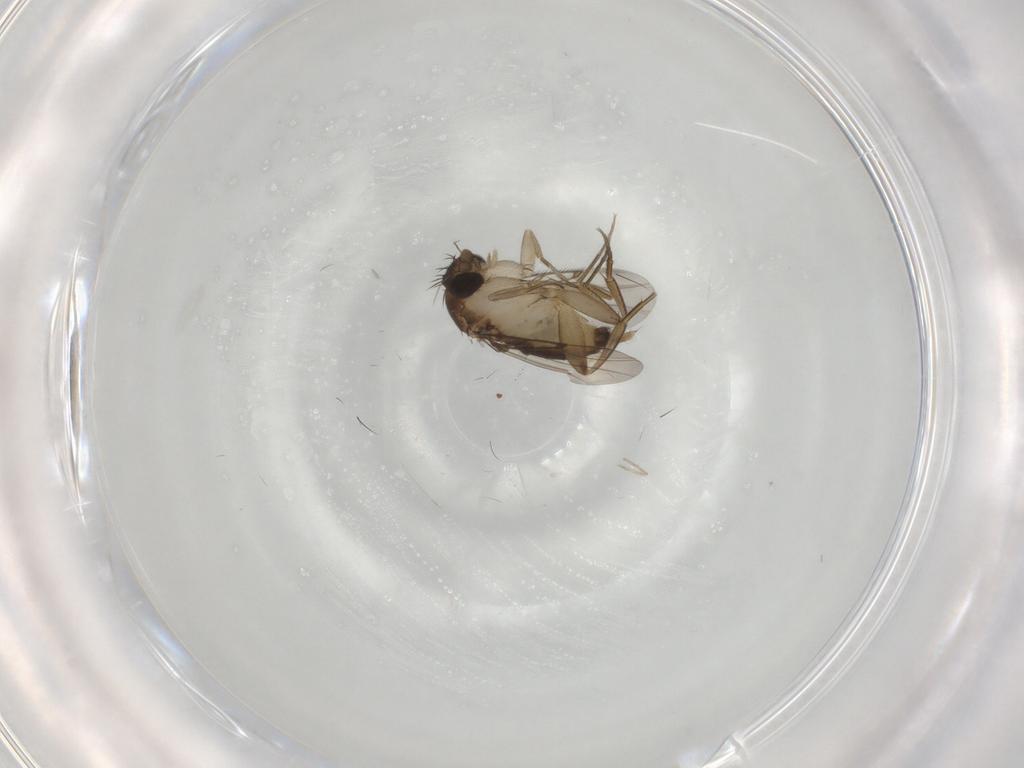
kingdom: Animalia
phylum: Arthropoda
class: Insecta
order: Diptera
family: Phoridae
